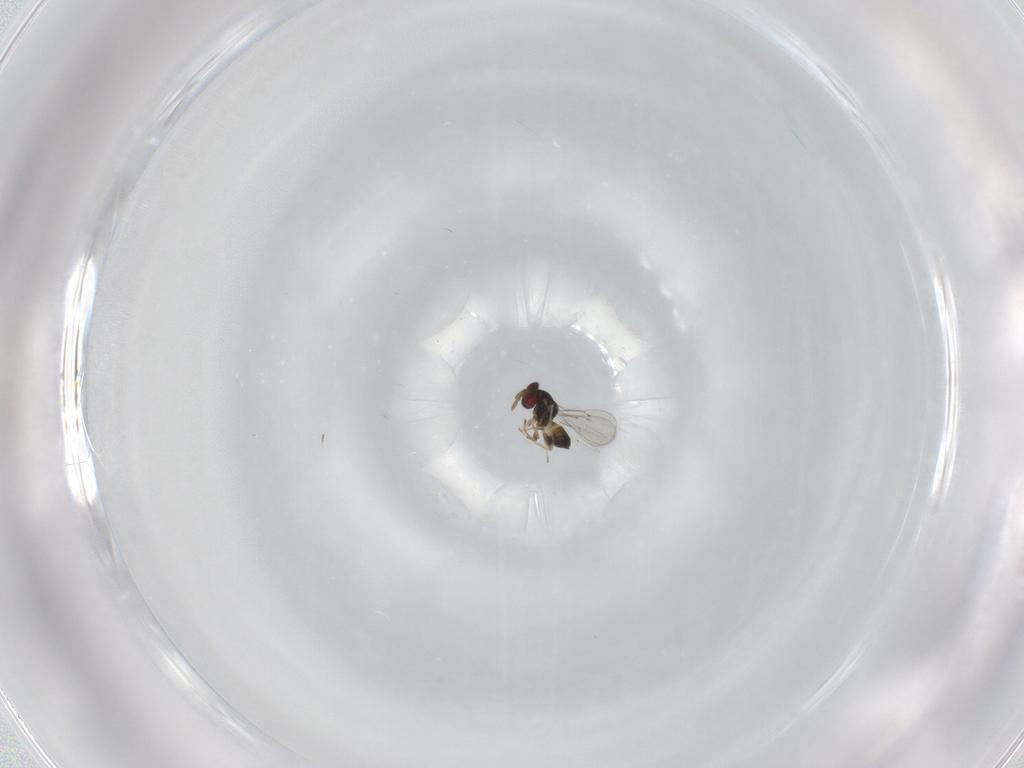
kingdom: Animalia
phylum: Arthropoda
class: Insecta
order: Hymenoptera
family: Eulophidae
